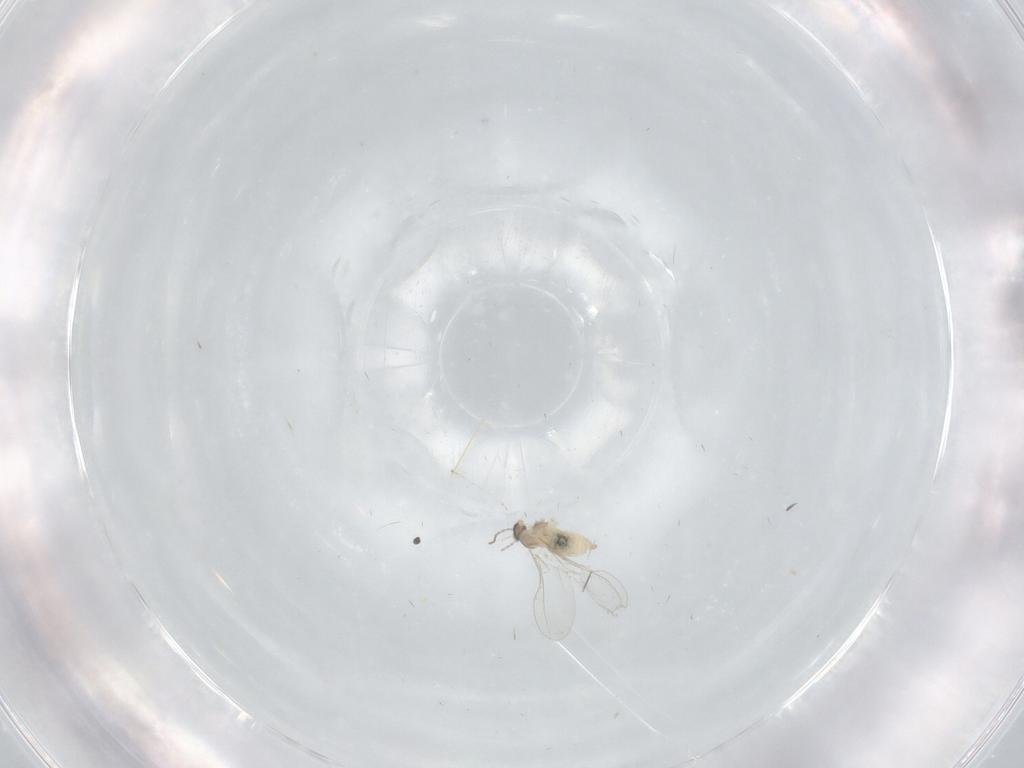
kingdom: Animalia
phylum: Arthropoda
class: Insecta
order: Diptera
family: Cecidomyiidae
